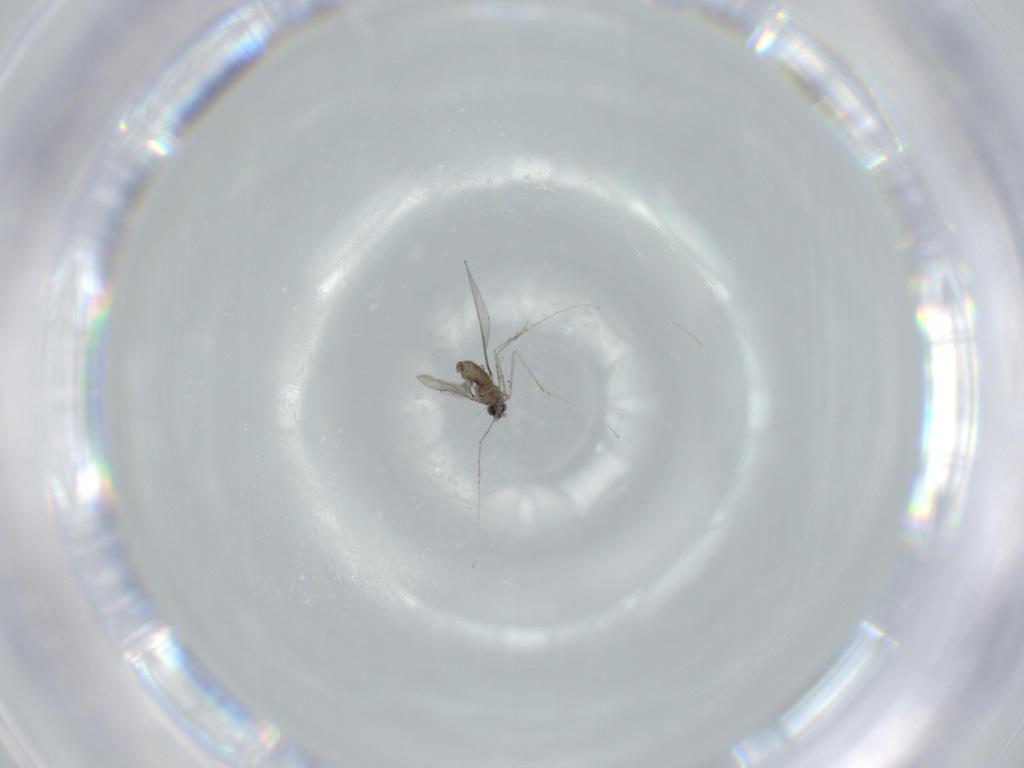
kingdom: Animalia
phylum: Arthropoda
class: Insecta
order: Diptera
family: Cecidomyiidae
